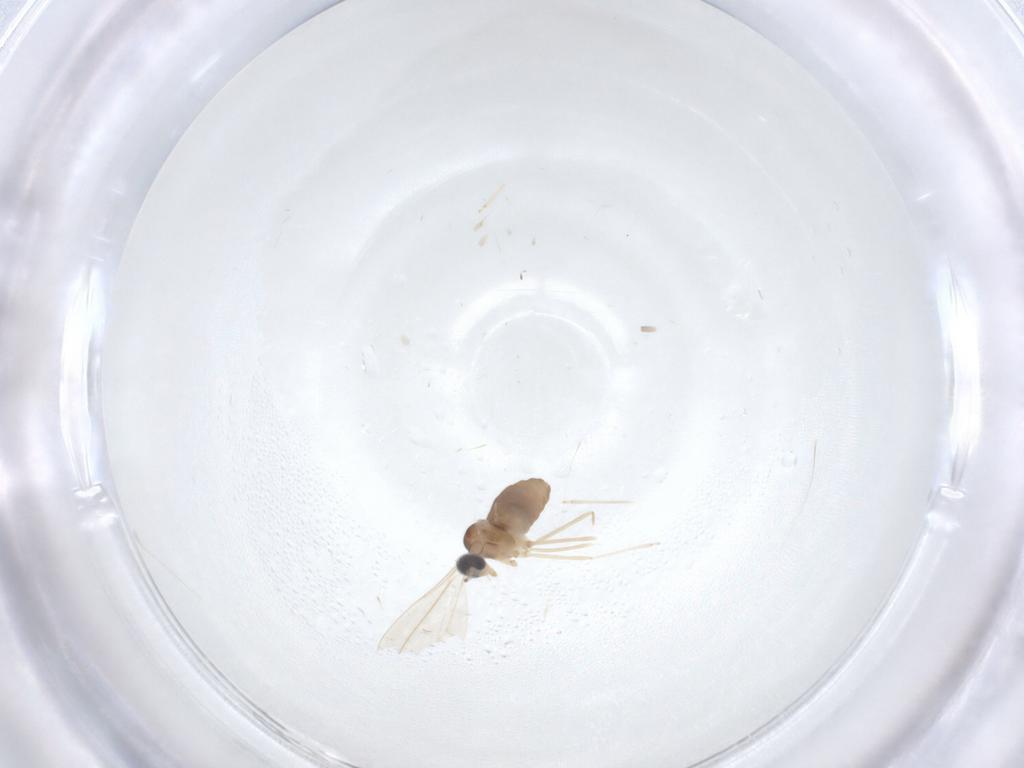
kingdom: Animalia
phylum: Arthropoda
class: Insecta
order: Diptera
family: Cecidomyiidae
